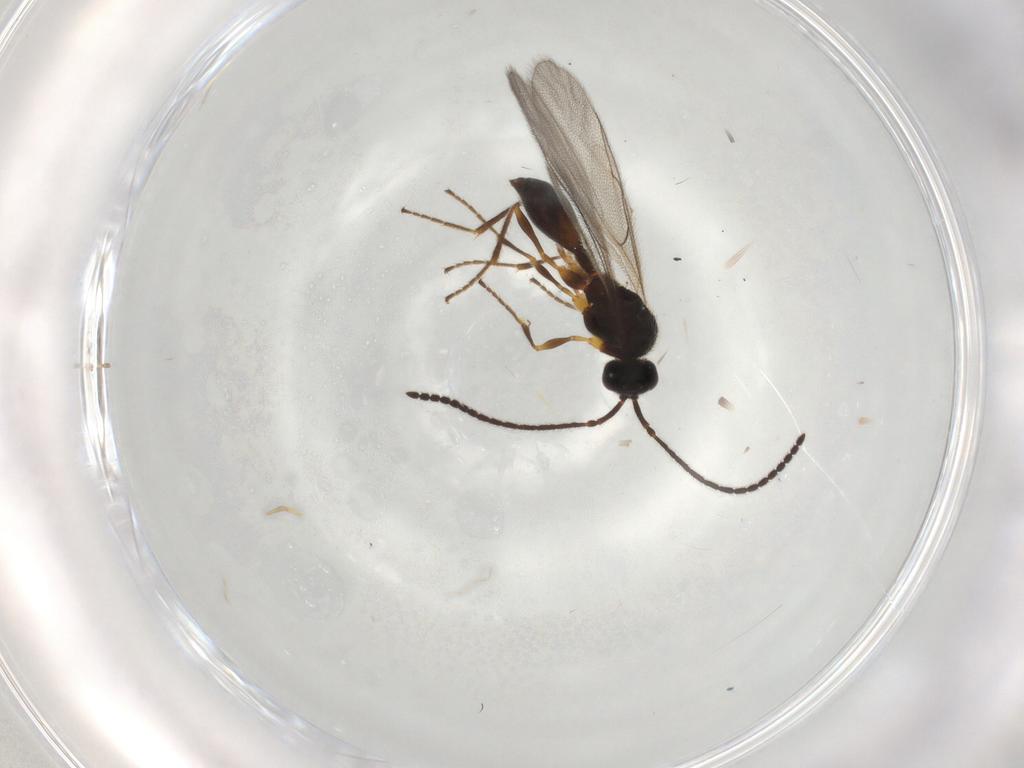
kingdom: Animalia
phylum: Arthropoda
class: Insecta
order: Hymenoptera
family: Diapriidae
